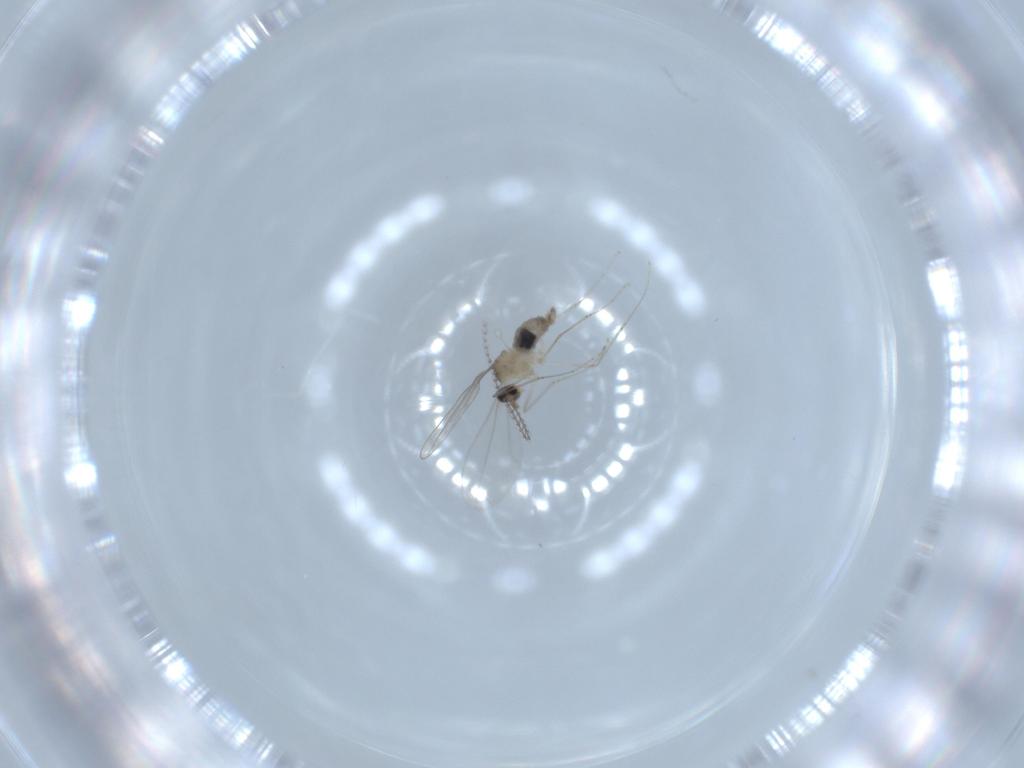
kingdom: Animalia
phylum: Arthropoda
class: Insecta
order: Diptera
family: Cecidomyiidae
